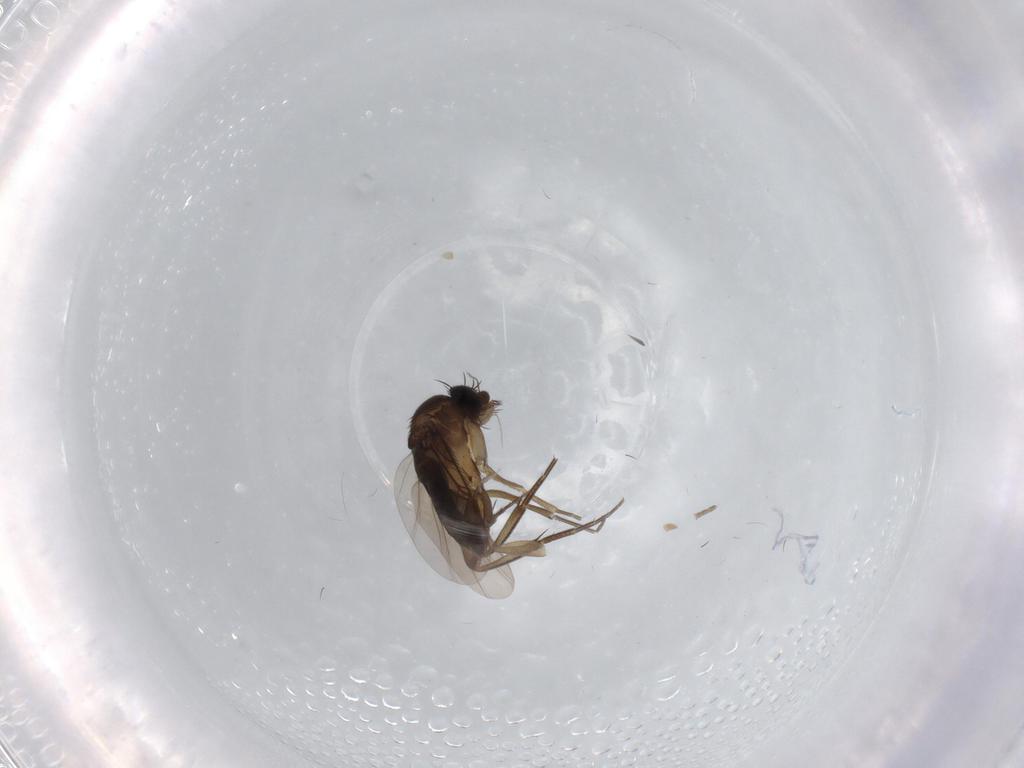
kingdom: Animalia
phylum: Arthropoda
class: Insecta
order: Diptera
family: Phoridae
